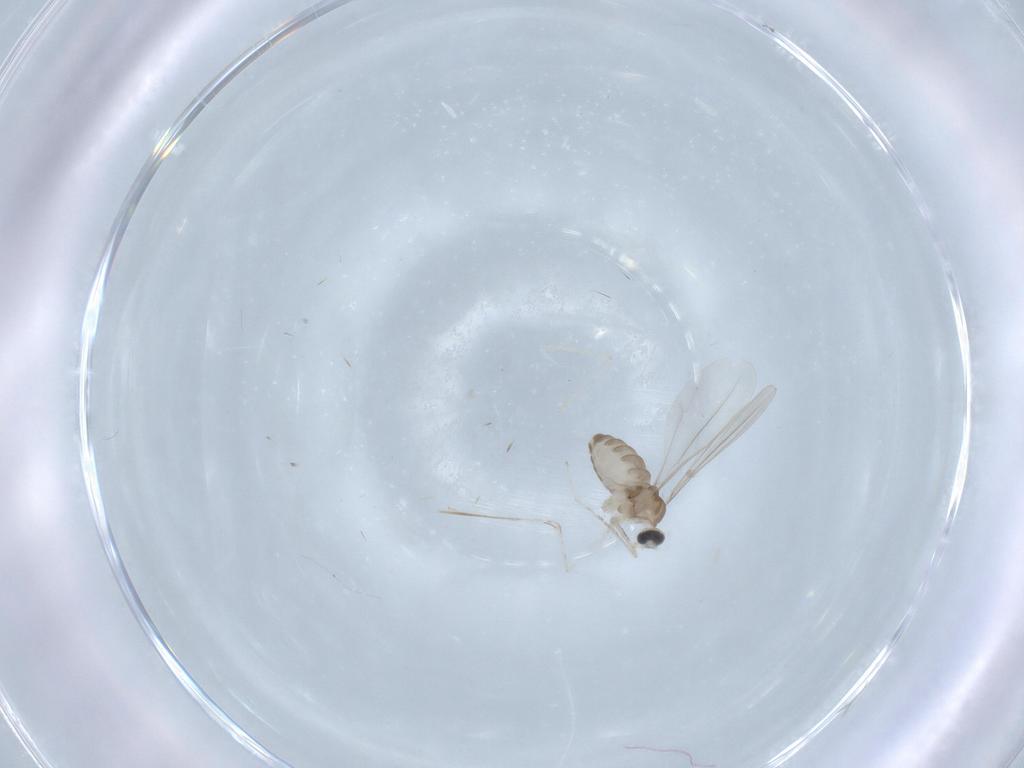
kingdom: Animalia
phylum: Arthropoda
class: Insecta
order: Diptera
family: Cecidomyiidae
